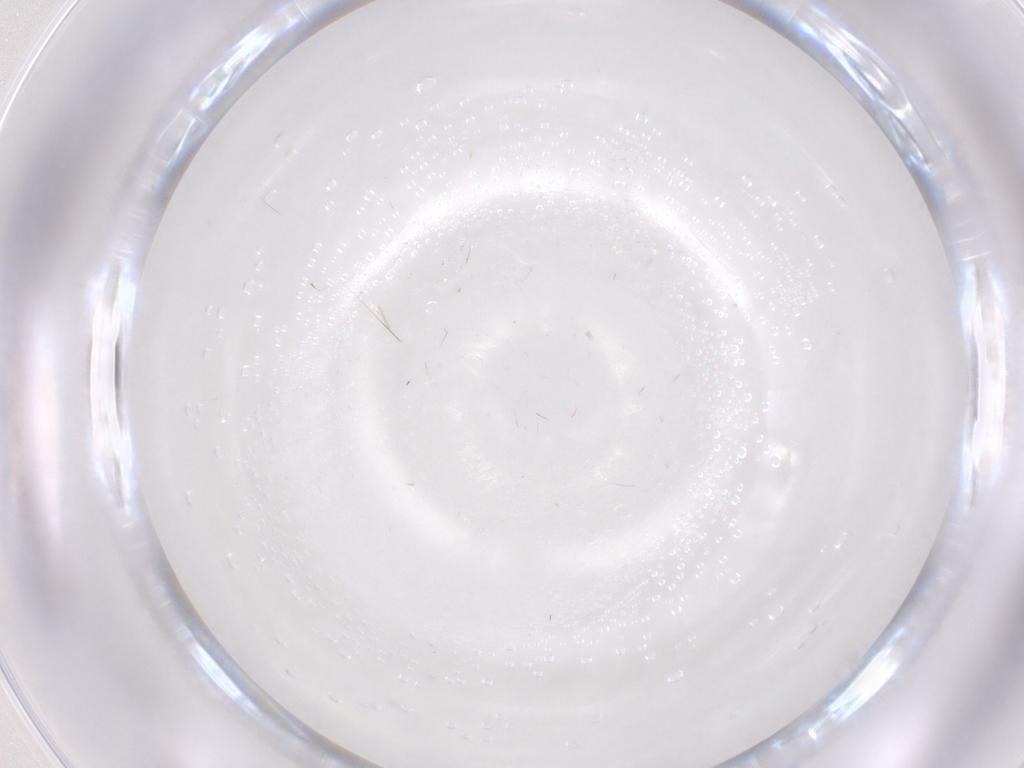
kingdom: Animalia
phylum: Arthropoda
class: Insecta
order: Diptera
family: Chironomidae
